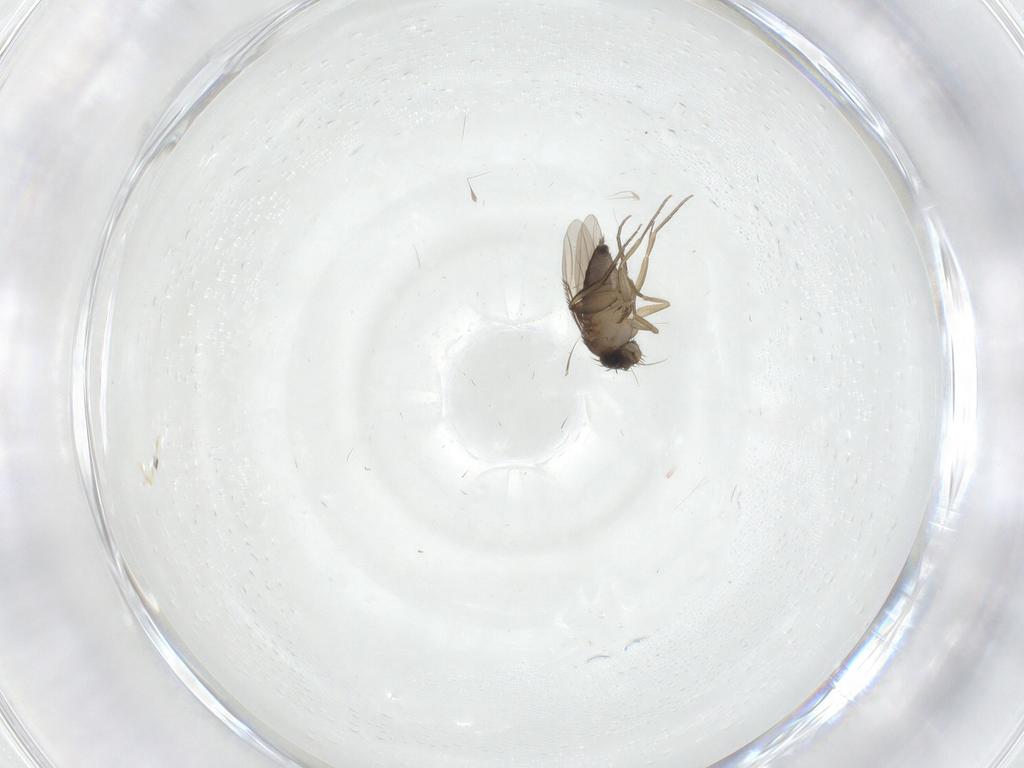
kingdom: Animalia
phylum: Arthropoda
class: Insecta
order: Diptera
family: Phoridae
